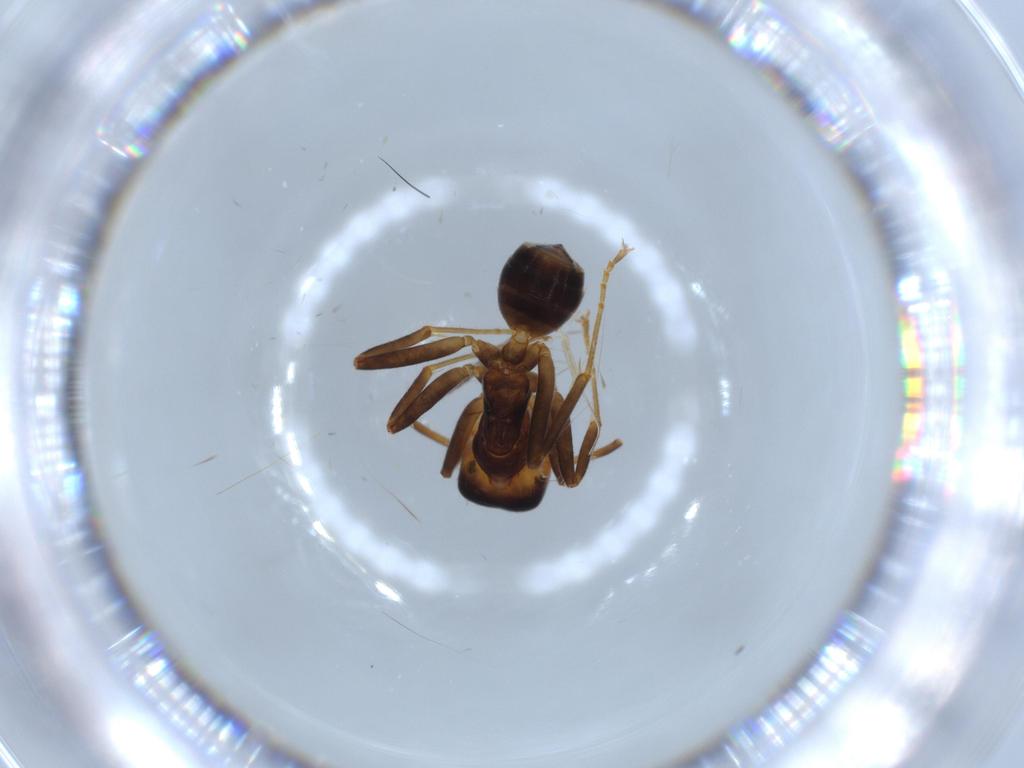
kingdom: Animalia
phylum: Arthropoda
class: Insecta
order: Hymenoptera
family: Formicidae
